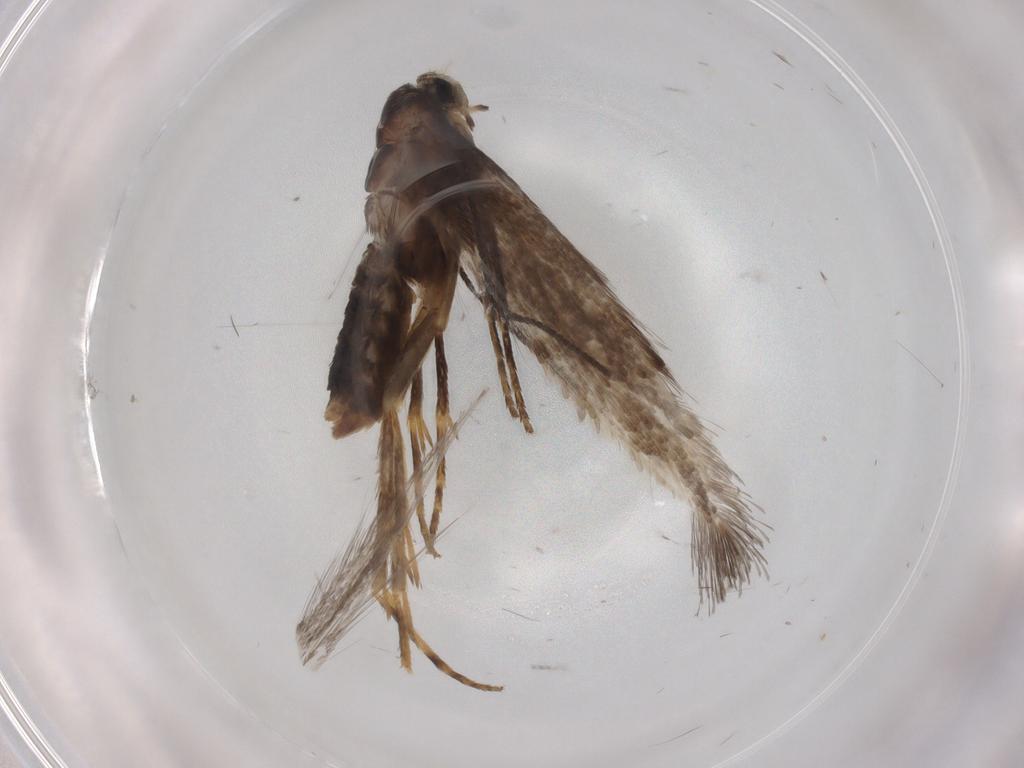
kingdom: Animalia
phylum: Arthropoda
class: Insecta
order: Lepidoptera
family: Nepticulidae
